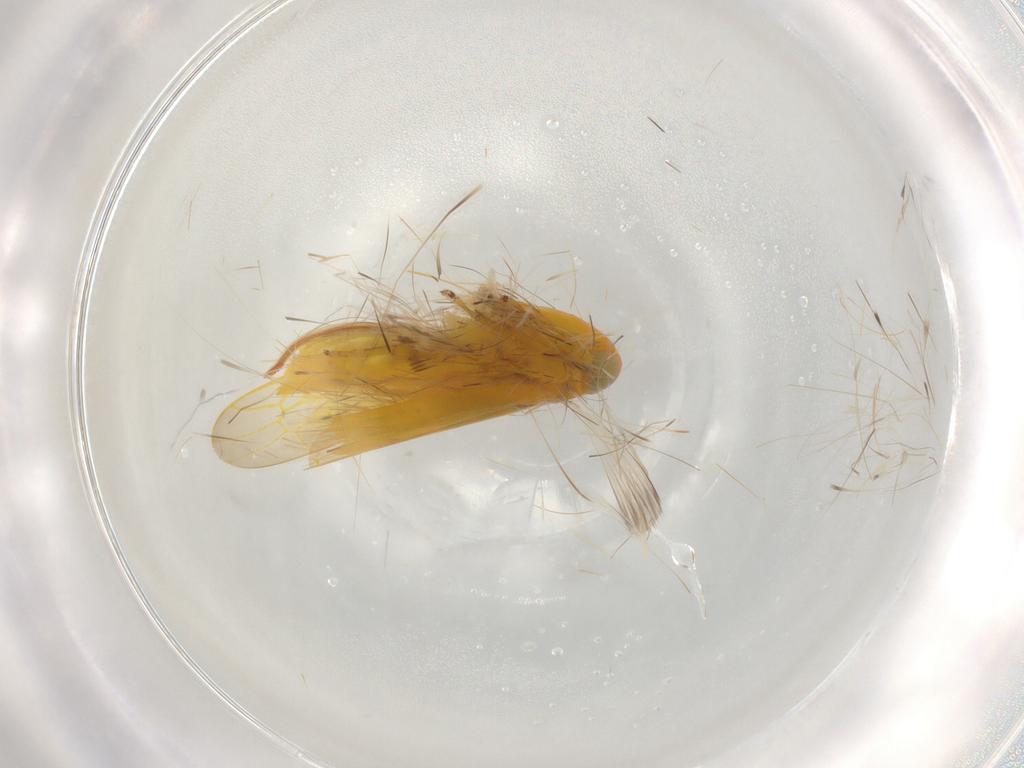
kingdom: Animalia
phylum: Arthropoda
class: Insecta
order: Hemiptera
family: Cicadellidae
